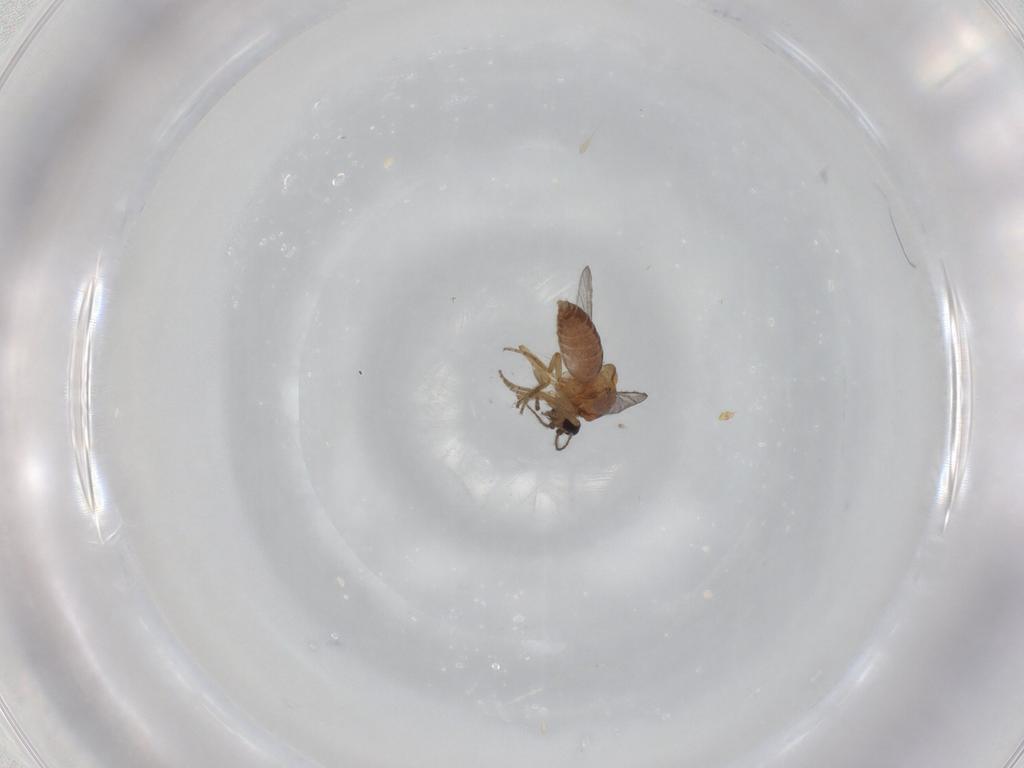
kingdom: Animalia
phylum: Arthropoda
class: Insecta
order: Diptera
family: Ceratopogonidae
